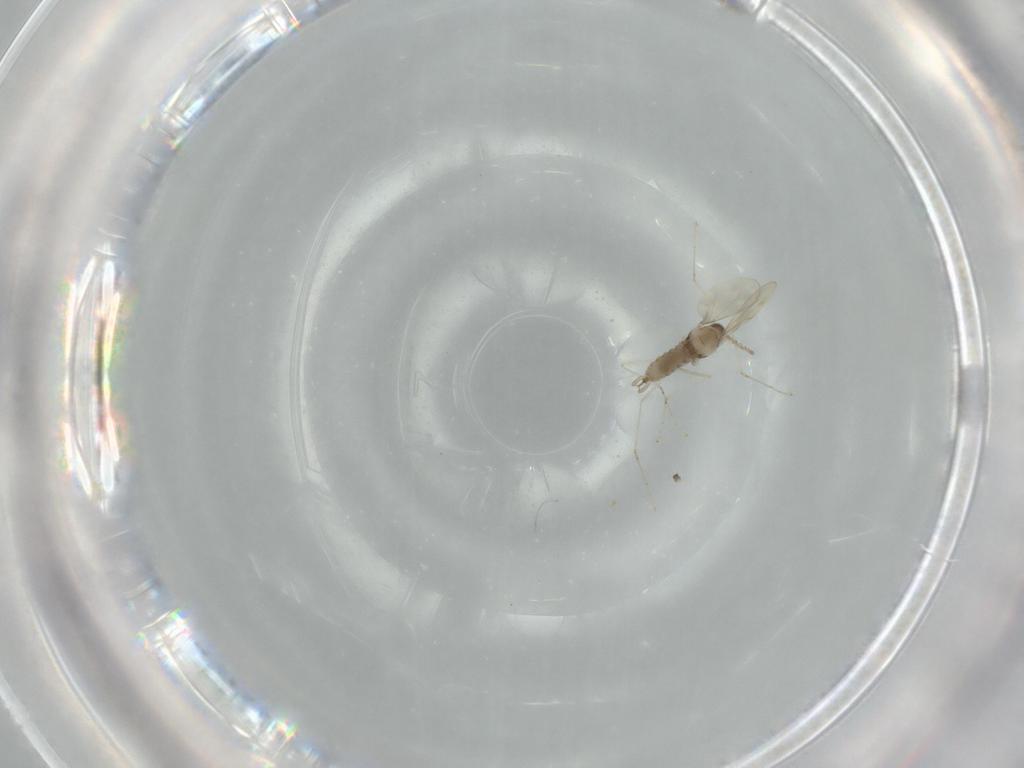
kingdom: Animalia
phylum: Arthropoda
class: Insecta
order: Diptera
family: Cecidomyiidae
